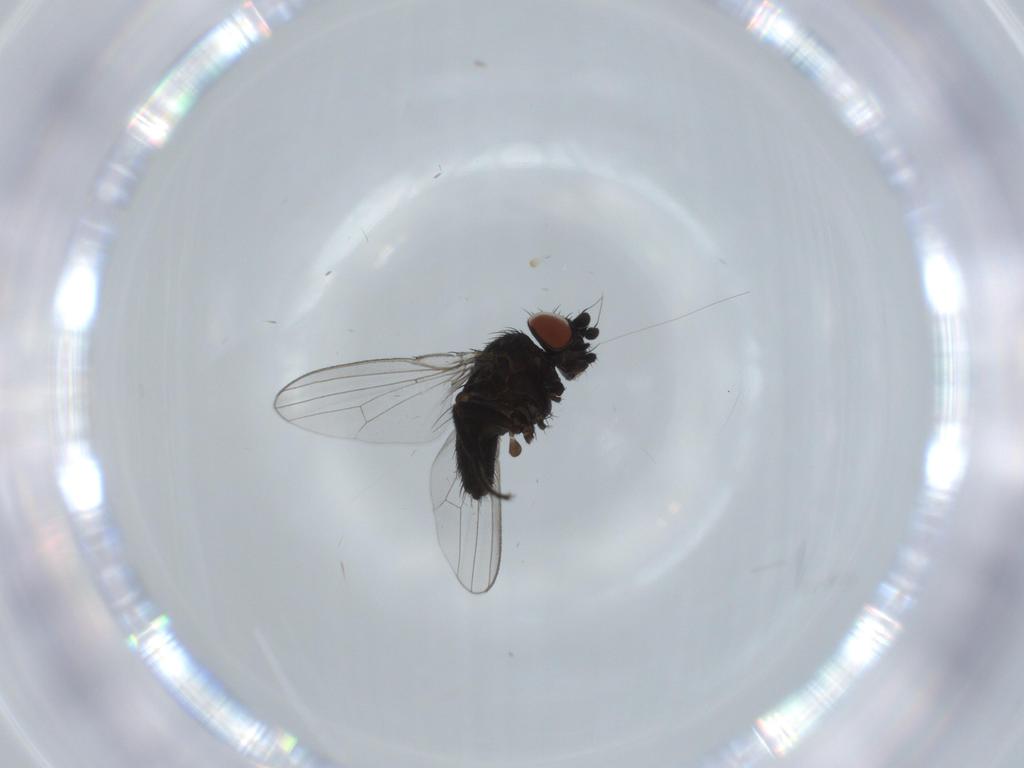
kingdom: Animalia
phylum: Arthropoda
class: Insecta
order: Diptera
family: Milichiidae
